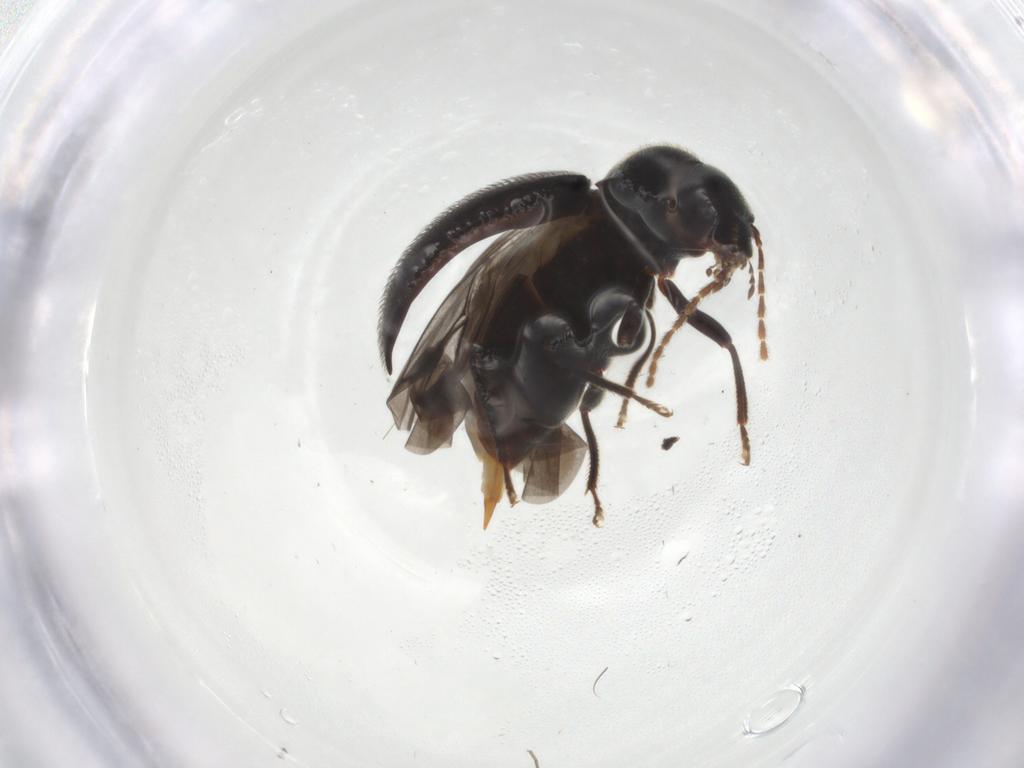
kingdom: Animalia
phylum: Arthropoda
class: Insecta
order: Coleoptera
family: Ptilodactylidae
